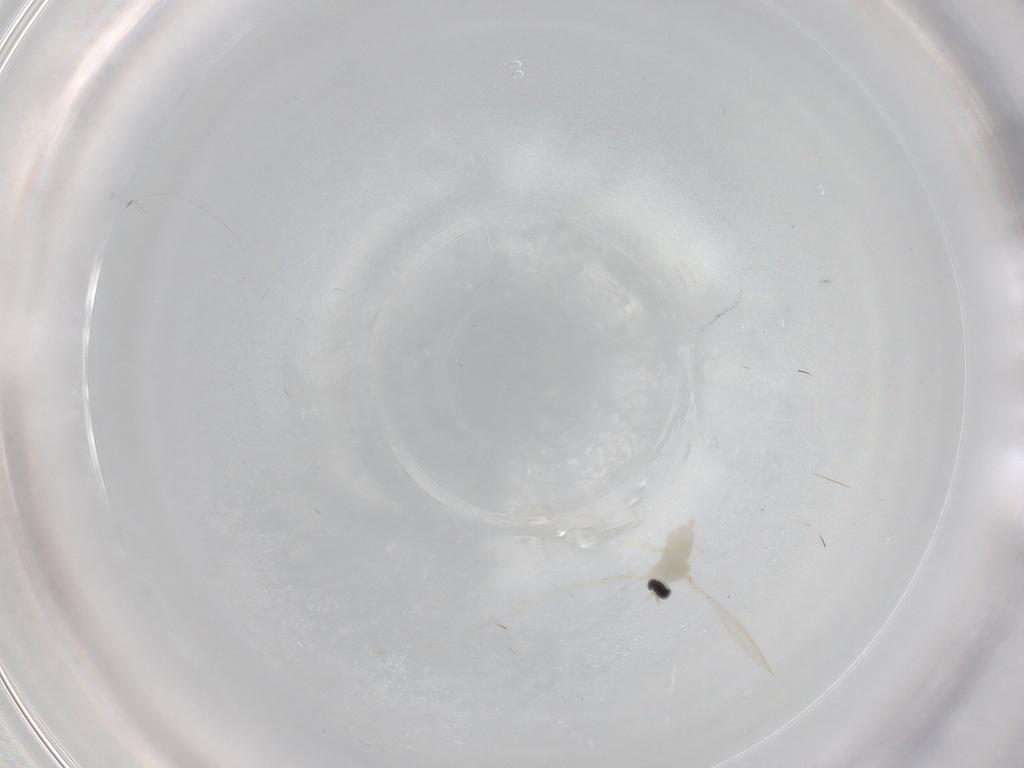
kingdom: Animalia
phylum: Arthropoda
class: Insecta
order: Diptera
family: Cecidomyiidae
